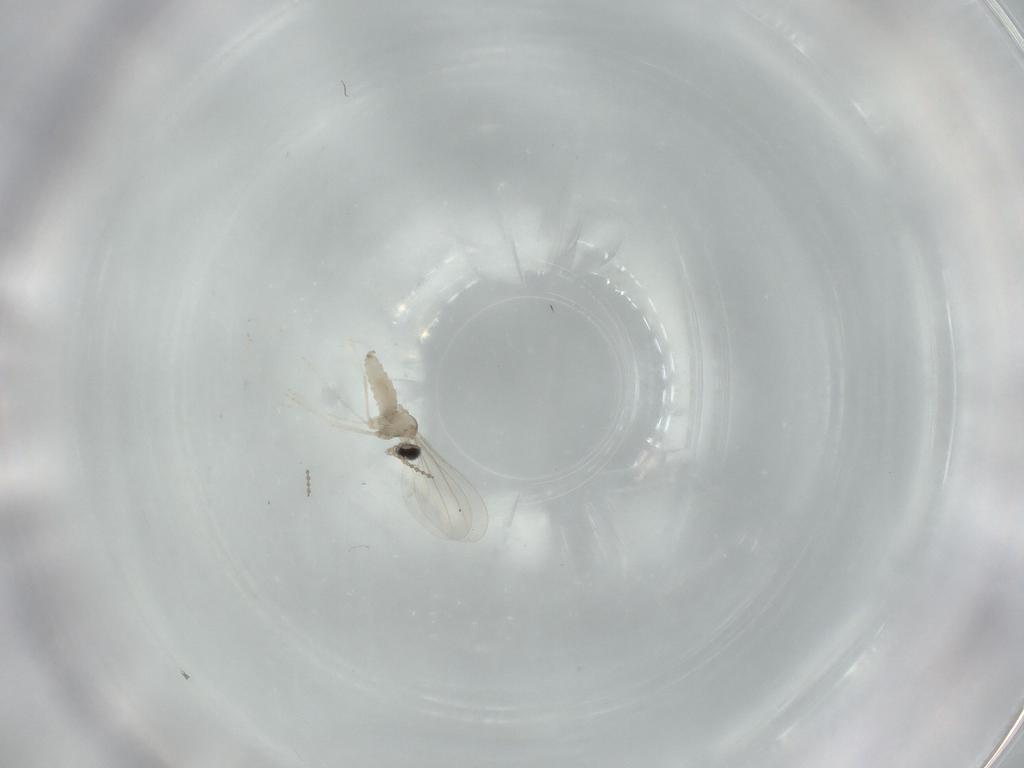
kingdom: Animalia
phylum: Arthropoda
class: Insecta
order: Diptera
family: Cecidomyiidae
